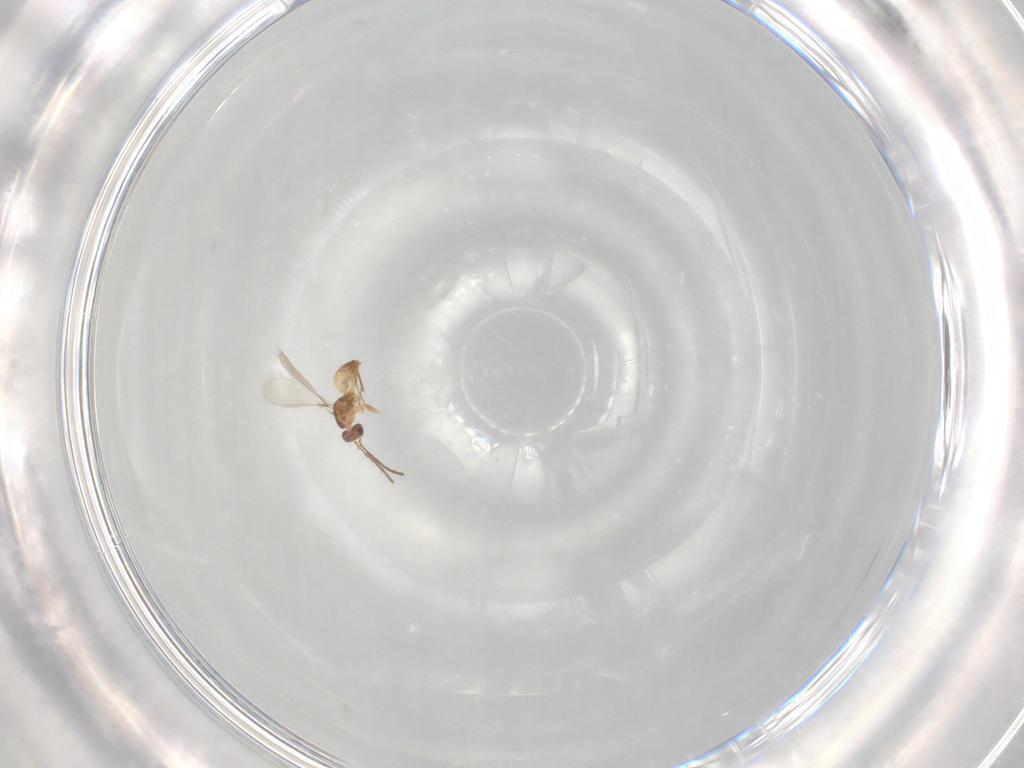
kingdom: Animalia
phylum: Arthropoda
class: Insecta
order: Hymenoptera
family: Mymaridae
